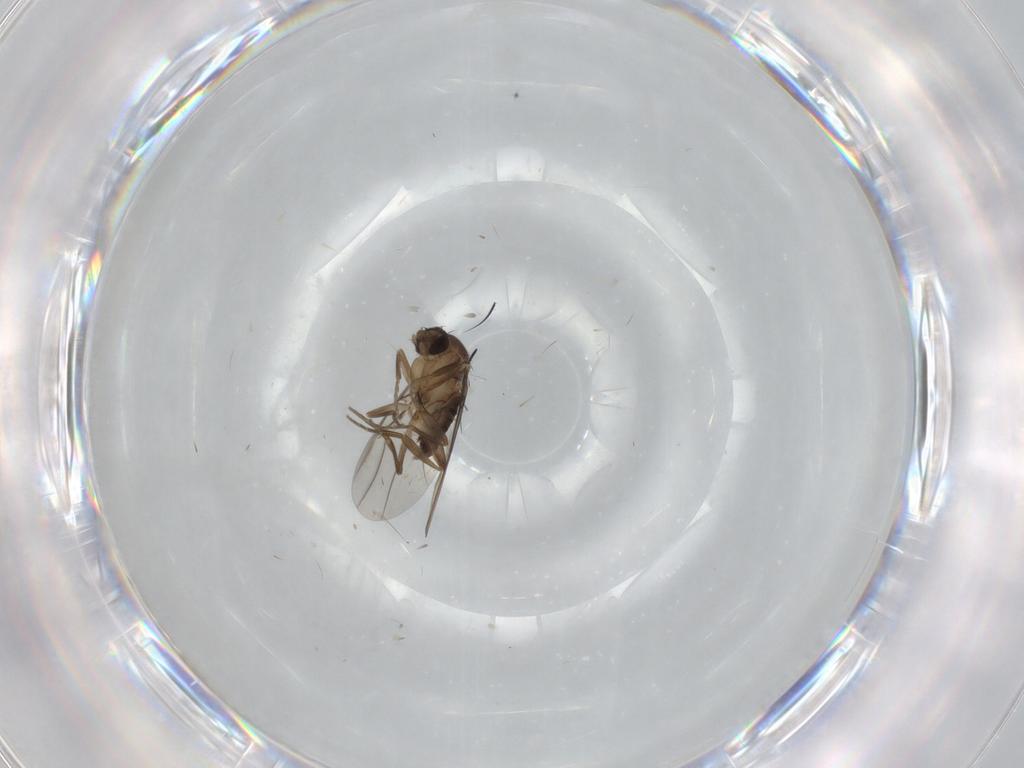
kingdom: Animalia
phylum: Arthropoda
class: Insecta
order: Diptera
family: Phoridae
